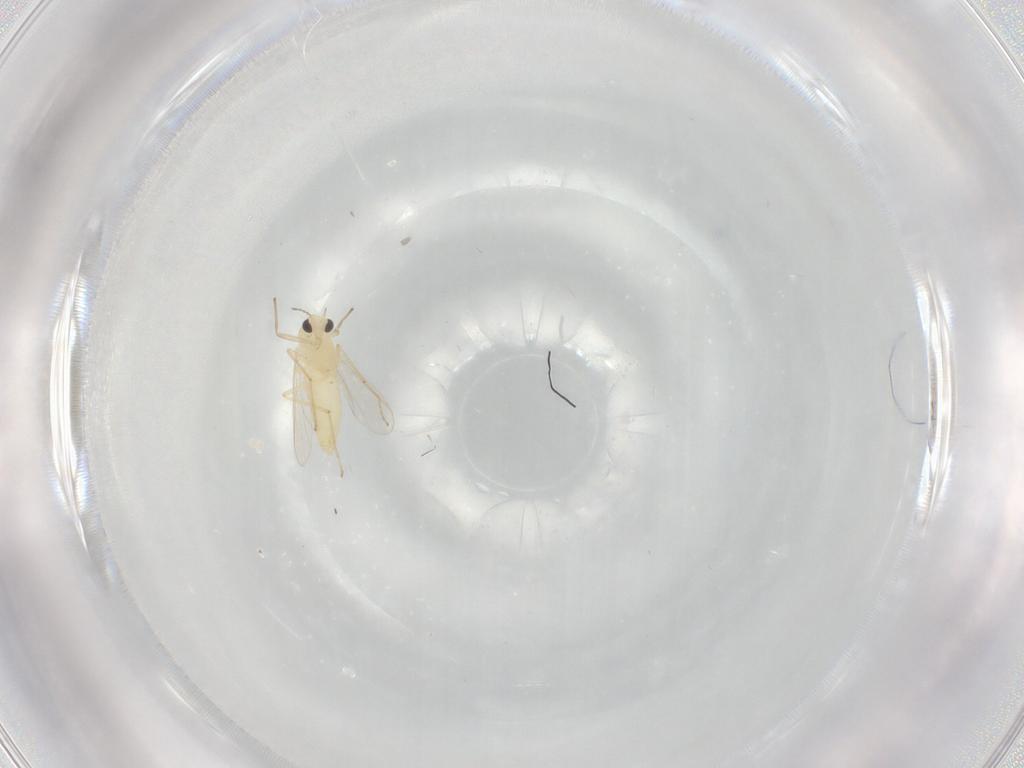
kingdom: Animalia
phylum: Arthropoda
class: Insecta
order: Diptera
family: Chironomidae
